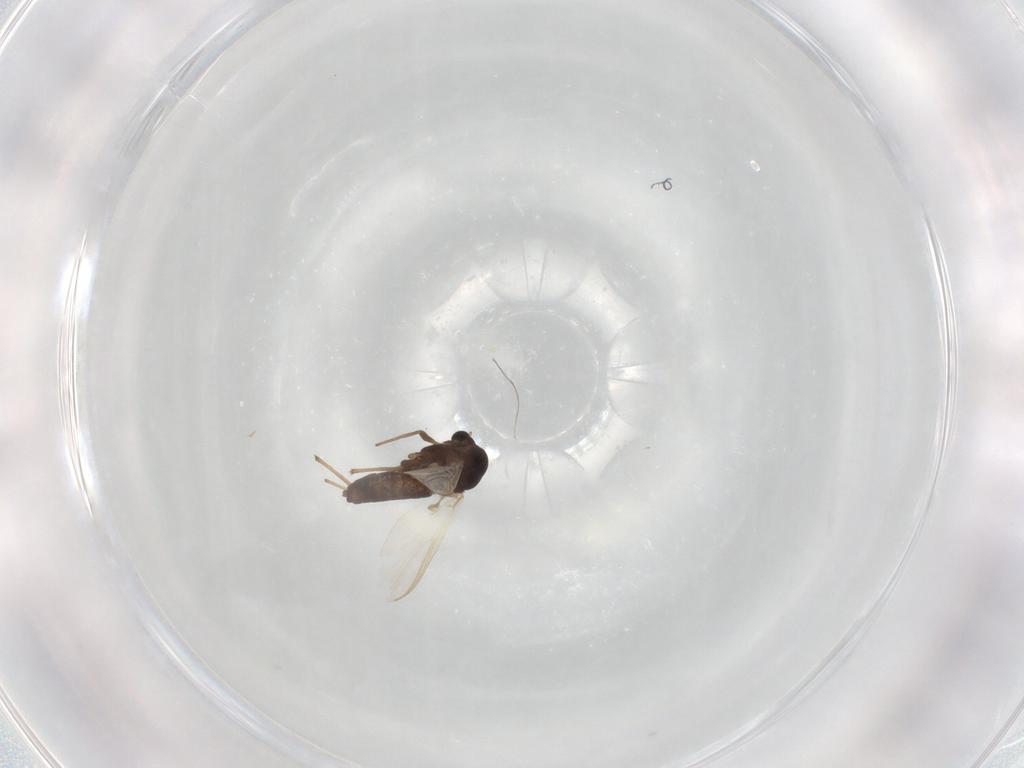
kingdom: Animalia
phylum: Arthropoda
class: Insecta
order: Diptera
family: Chironomidae
